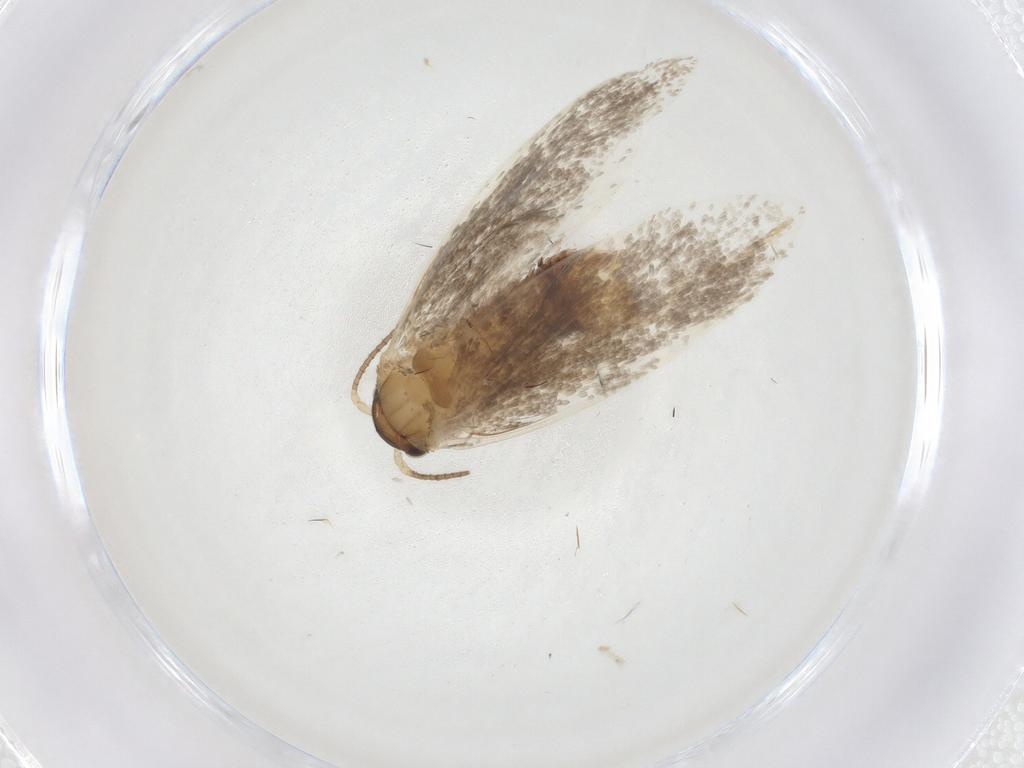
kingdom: Animalia
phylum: Arthropoda
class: Insecta
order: Lepidoptera
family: Dryadaulidae
